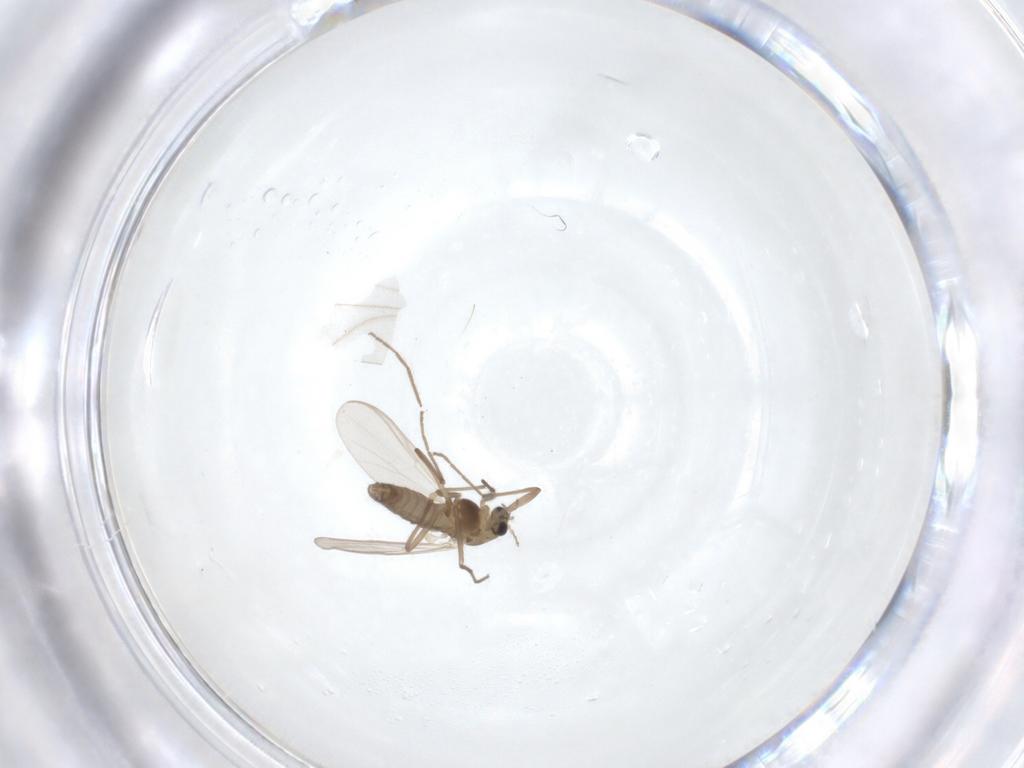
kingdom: Animalia
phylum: Arthropoda
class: Insecta
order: Diptera
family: Chironomidae
